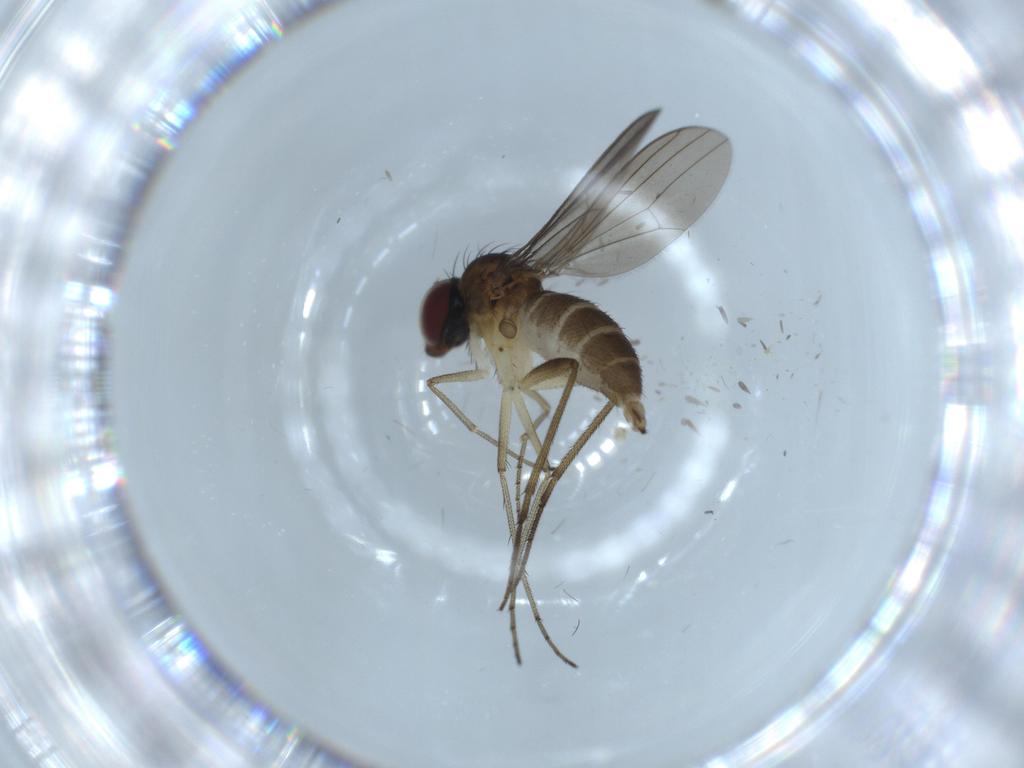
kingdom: Animalia
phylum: Arthropoda
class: Insecta
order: Diptera
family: Dolichopodidae
